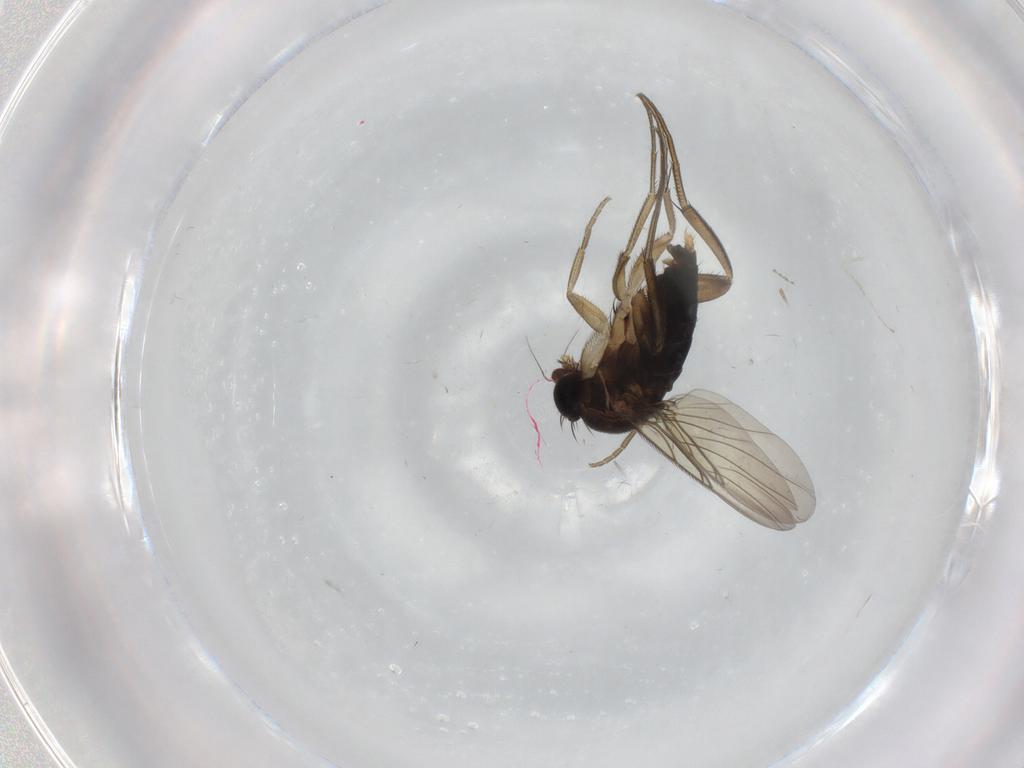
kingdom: Animalia
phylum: Arthropoda
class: Insecta
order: Diptera
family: Phoridae
